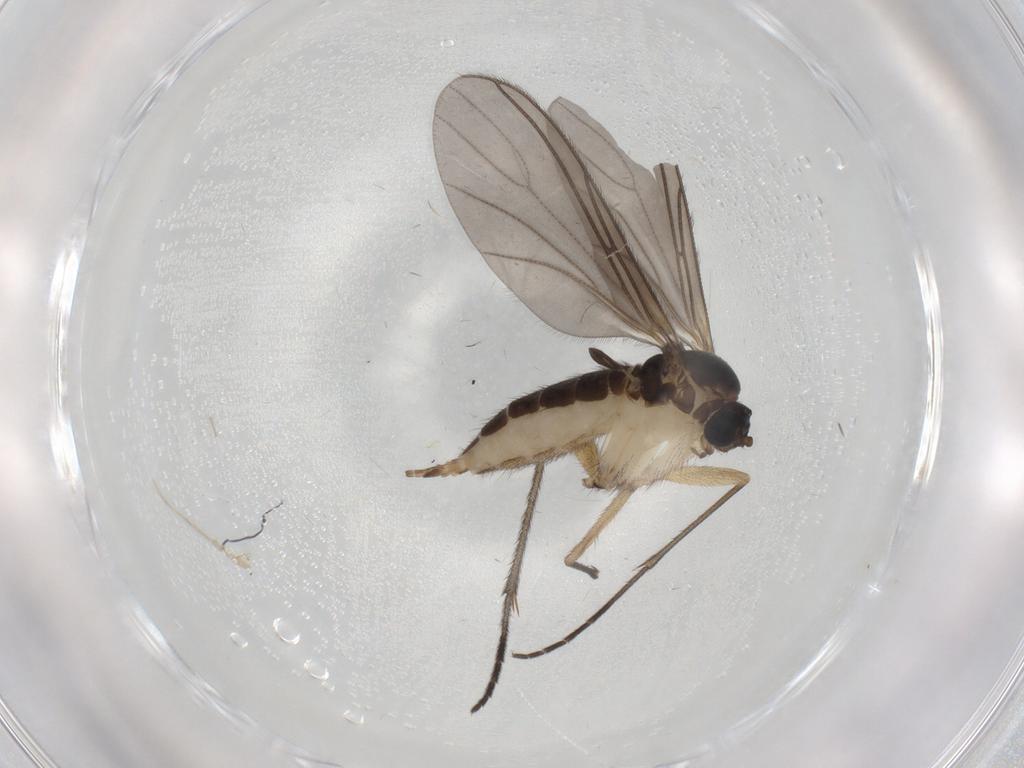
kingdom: Animalia
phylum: Arthropoda
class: Insecta
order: Diptera
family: Sciaridae
